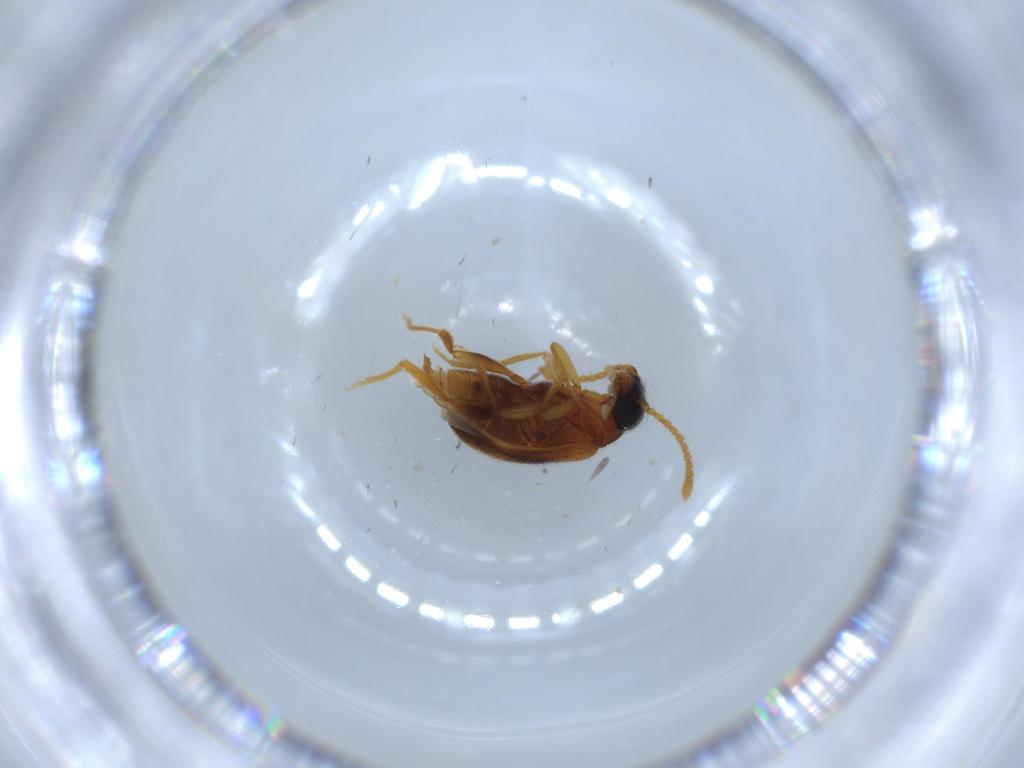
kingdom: Animalia
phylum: Arthropoda
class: Insecta
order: Coleoptera
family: Aderidae
